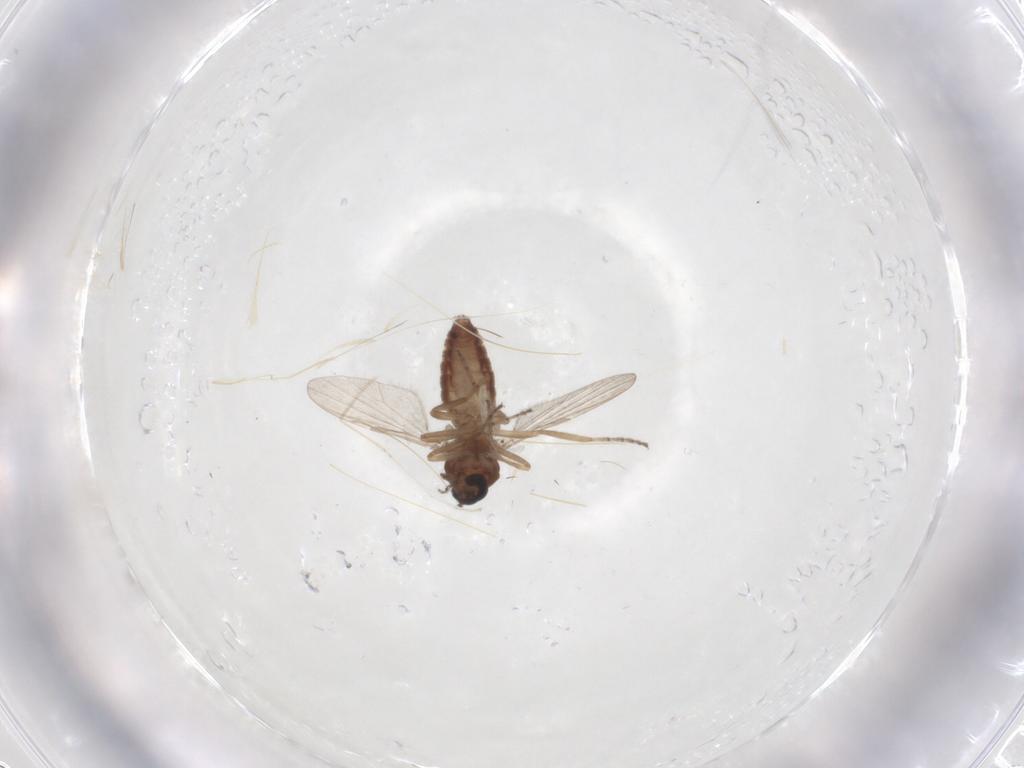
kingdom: Animalia
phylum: Arthropoda
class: Insecta
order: Diptera
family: Ceratopogonidae
